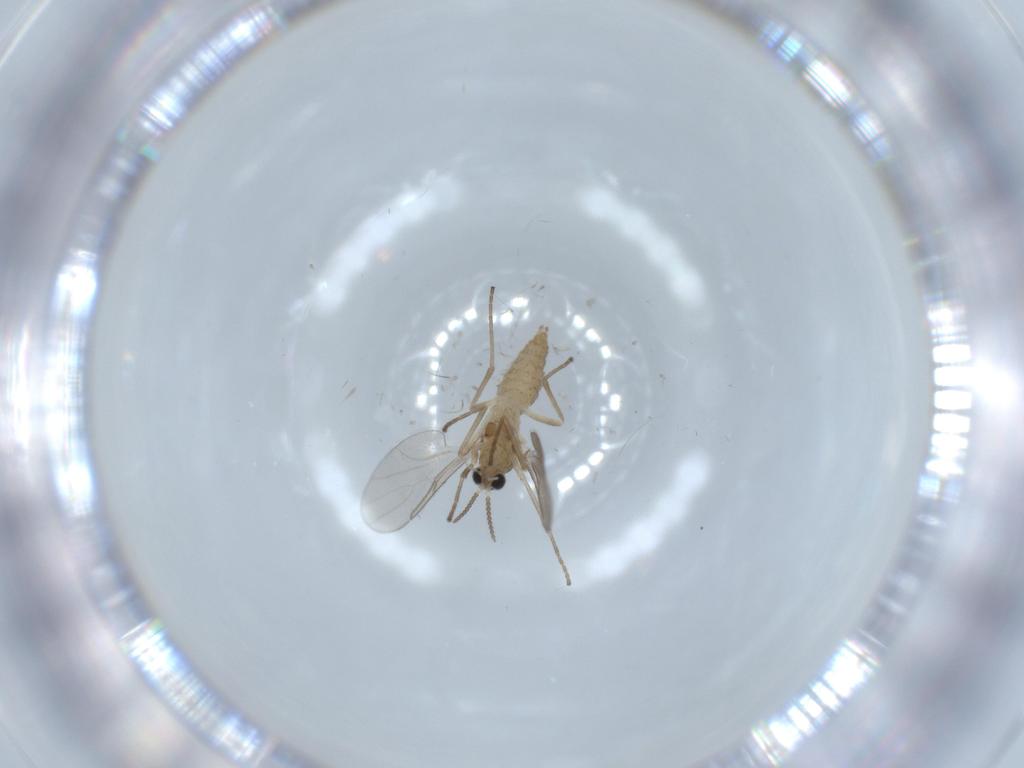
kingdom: Animalia
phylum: Arthropoda
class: Insecta
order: Diptera
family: Cecidomyiidae
